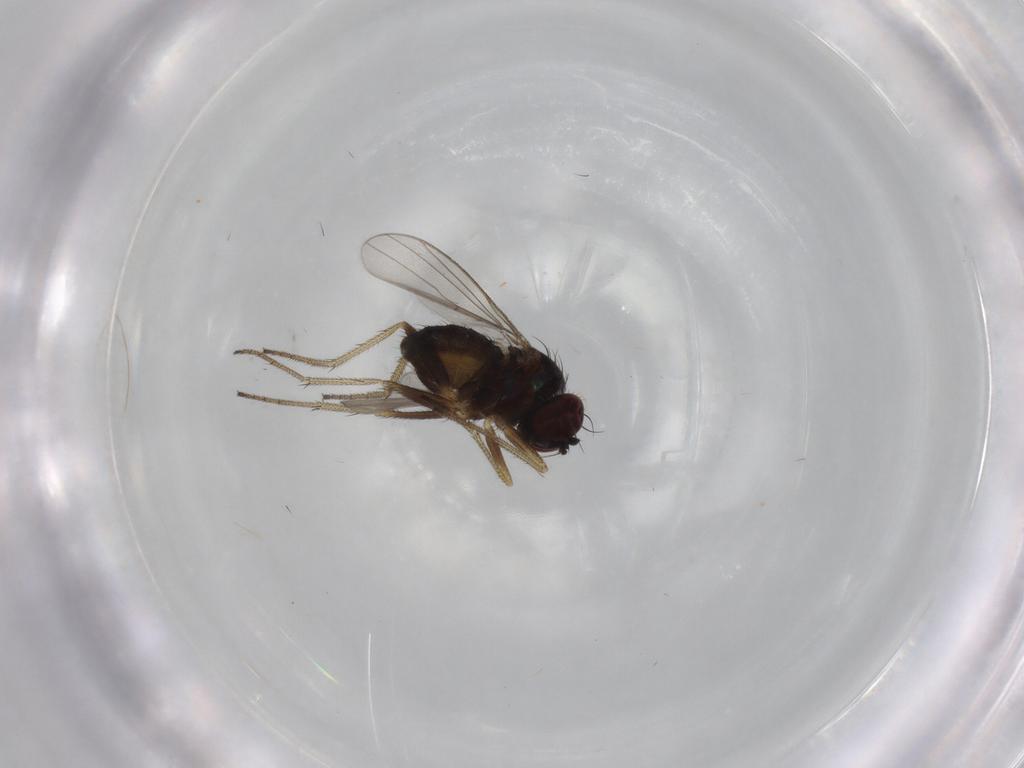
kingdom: Animalia
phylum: Arthropoda
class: Insecta
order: Diptera
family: Dolichopodidae
